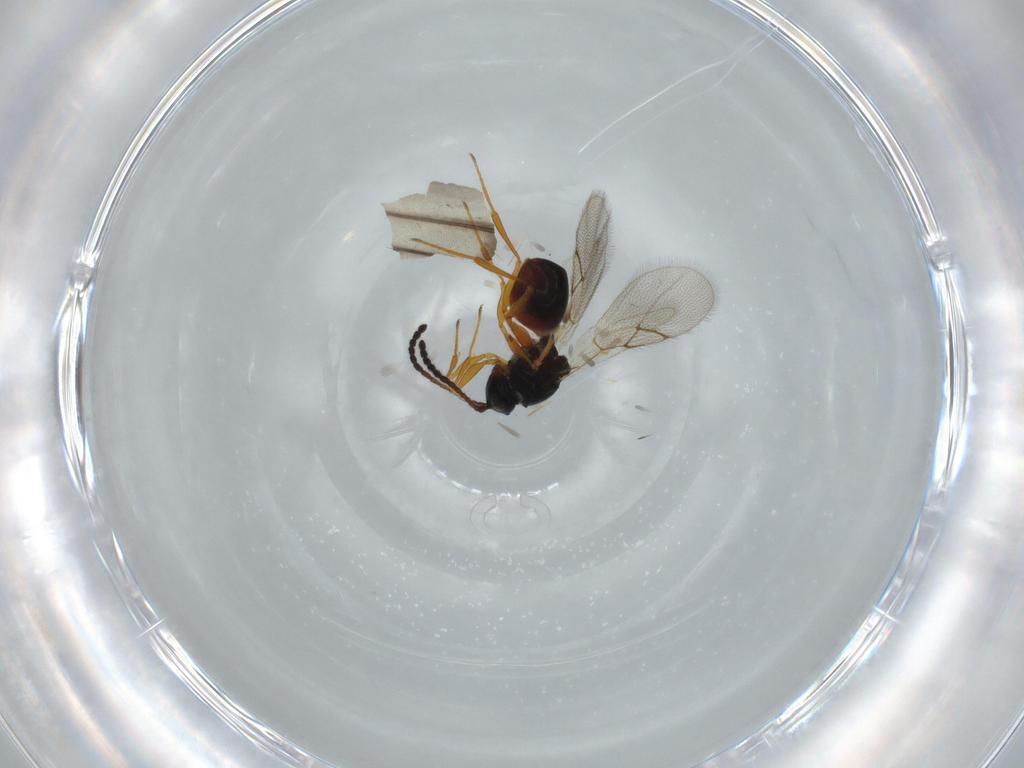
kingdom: Animalia
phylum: Arthropoda
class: Insecta
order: Hymenoptera
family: Figitidae
